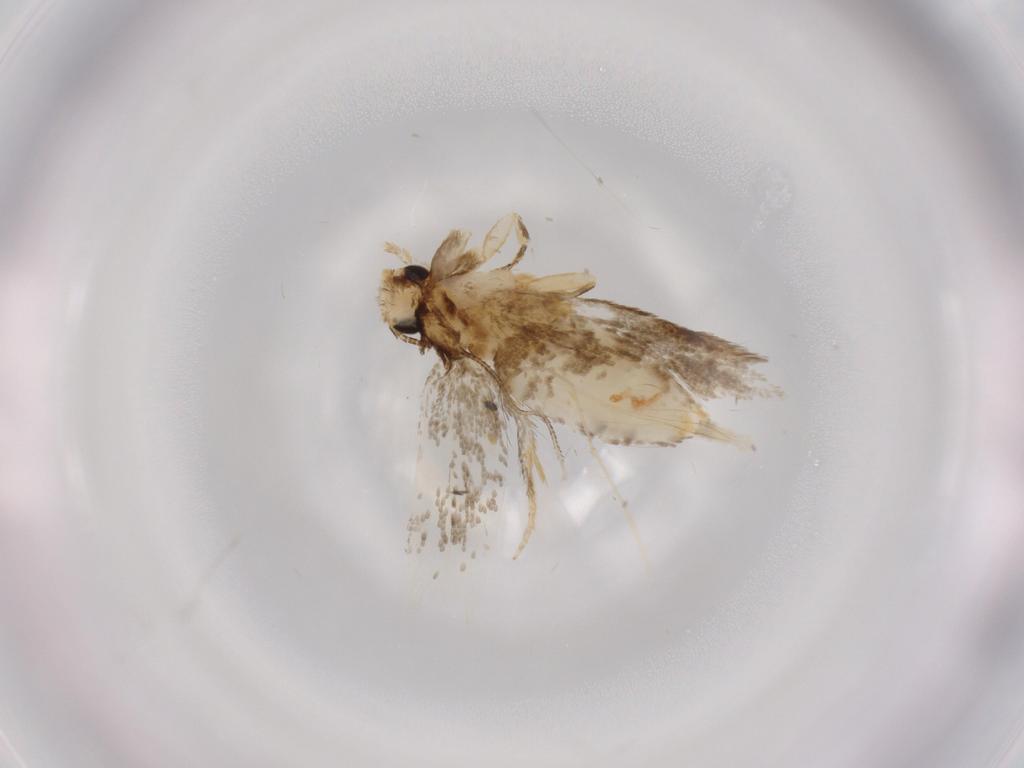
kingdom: Animalia
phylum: Arthropoda
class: Insecta
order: Lepidoptera
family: Tineidae
